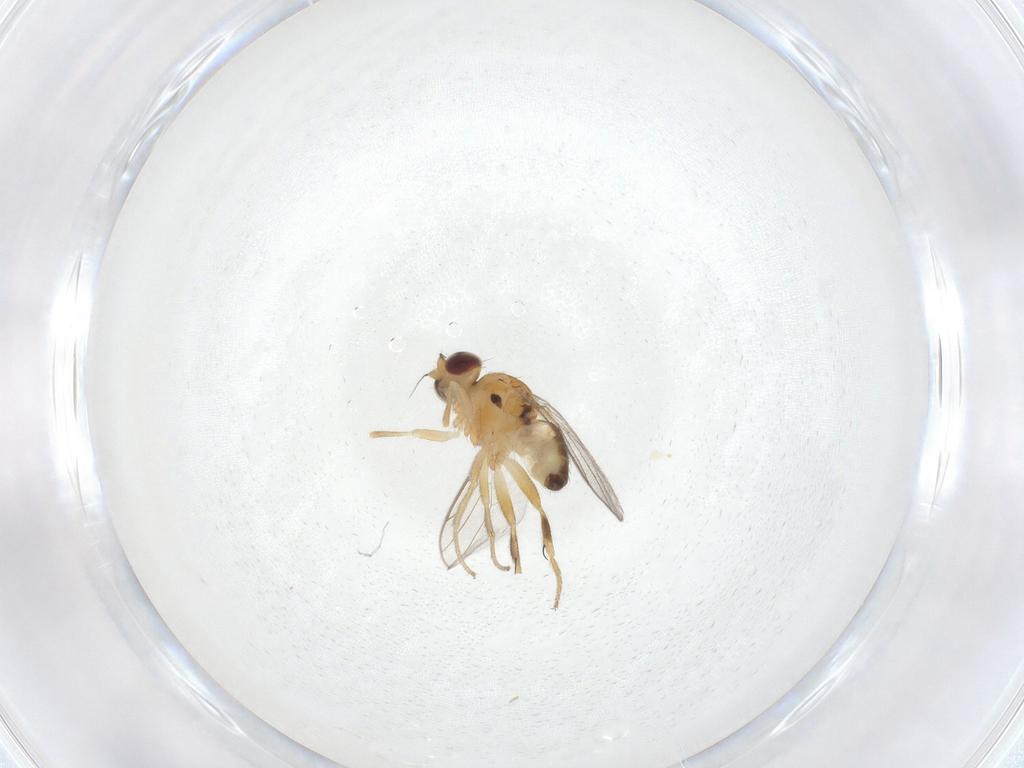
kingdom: Animalia
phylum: Arthropoda
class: Insecta
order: Diptera
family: Chloropidae
